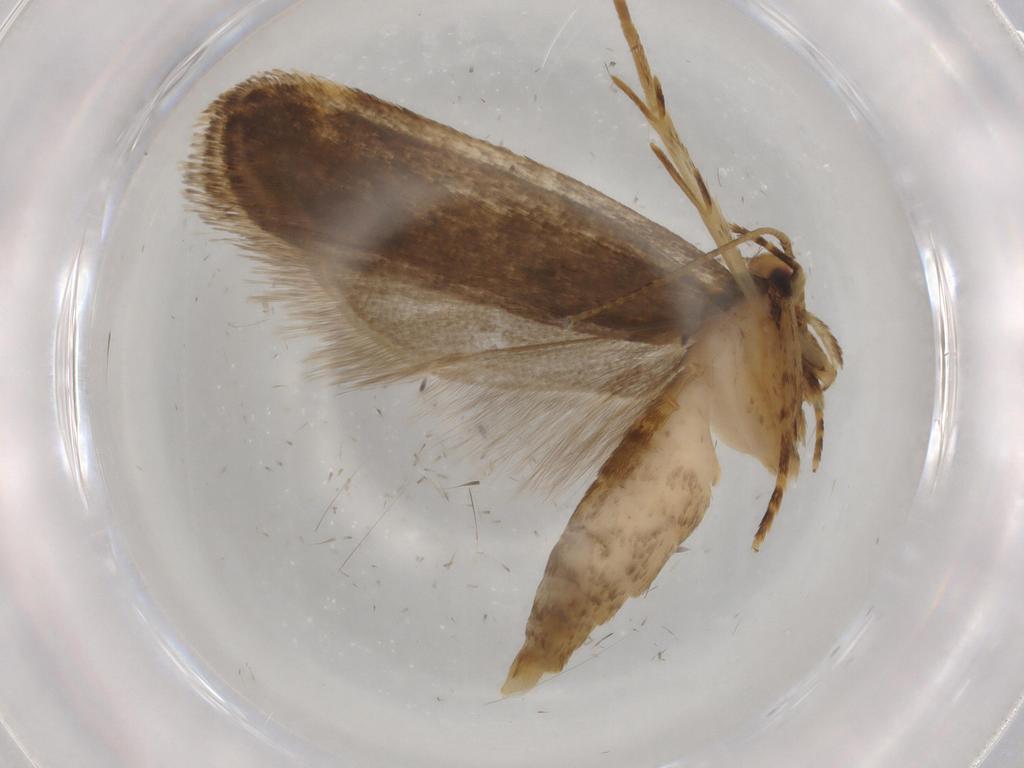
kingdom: Animalia
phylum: Arthropoda
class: Insecta
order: Lepidoptera
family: Autostichidae
